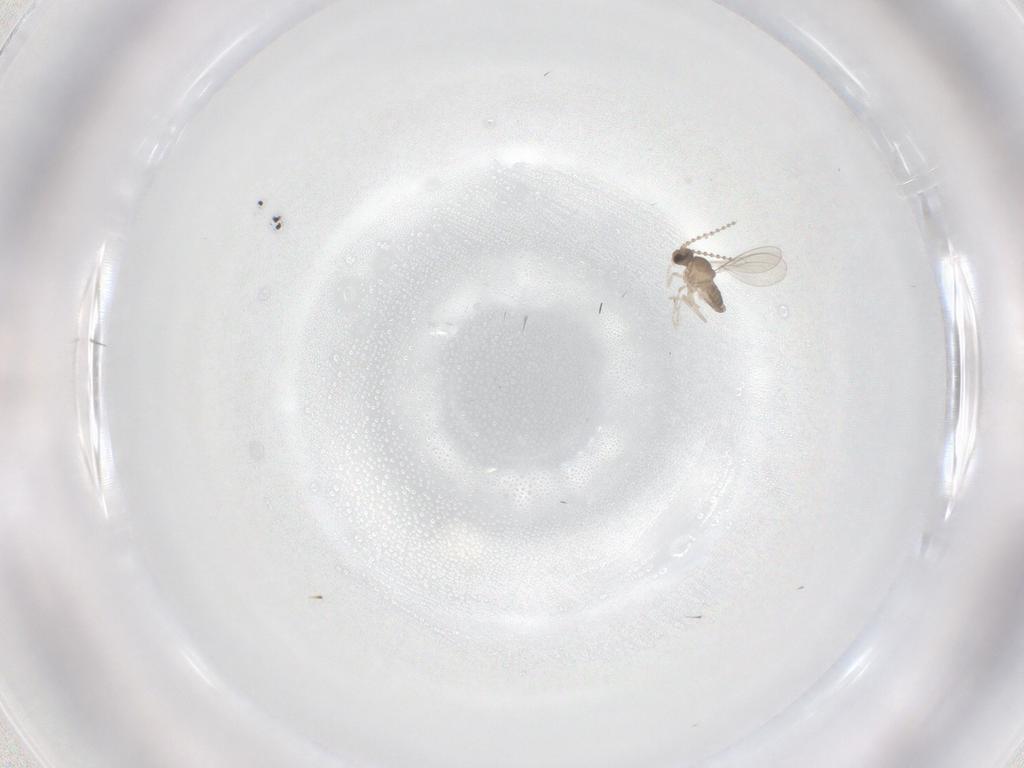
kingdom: Animalia
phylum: Arthropoda
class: Insecta
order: Diptera
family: Ceratopogonidae
